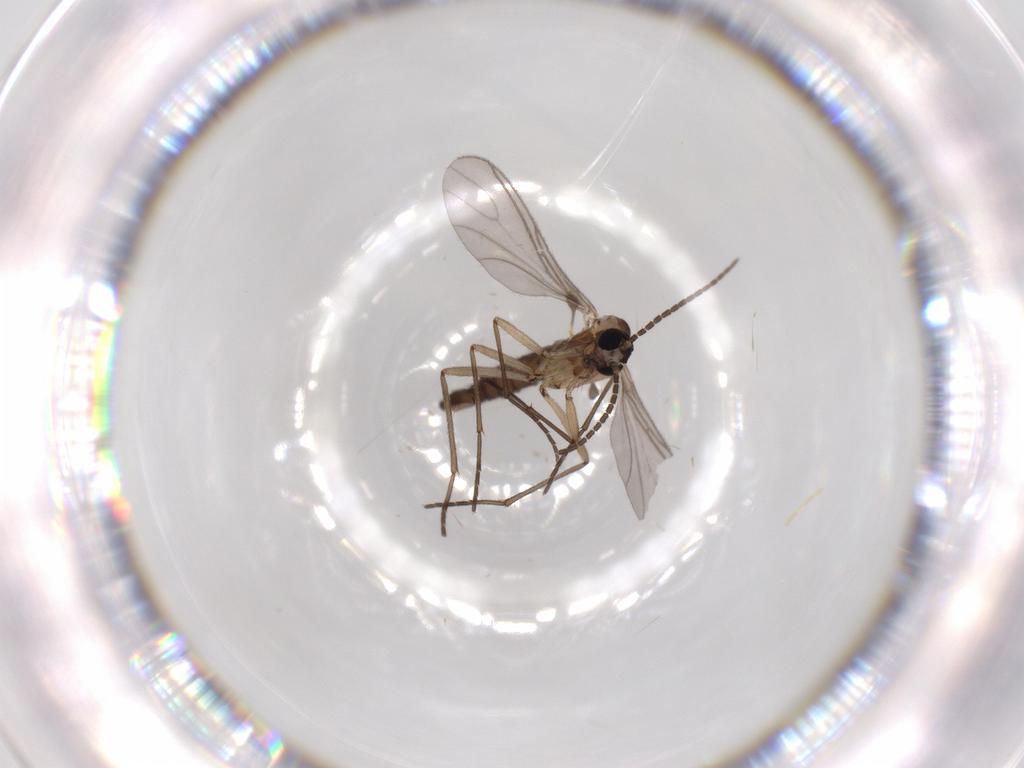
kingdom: Animalia
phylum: Arthropoda
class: Insecta
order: Diptera
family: Sciaridae
